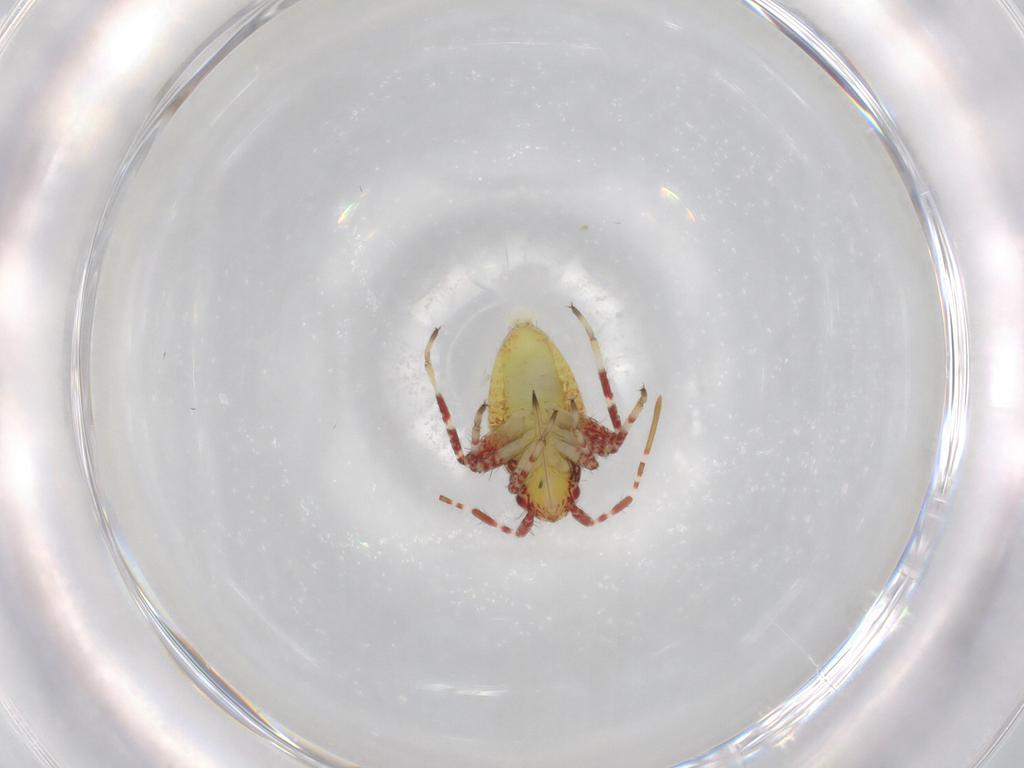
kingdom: Animalia
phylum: Arthropoda
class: Insecta
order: Hemiptera
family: Miridae
